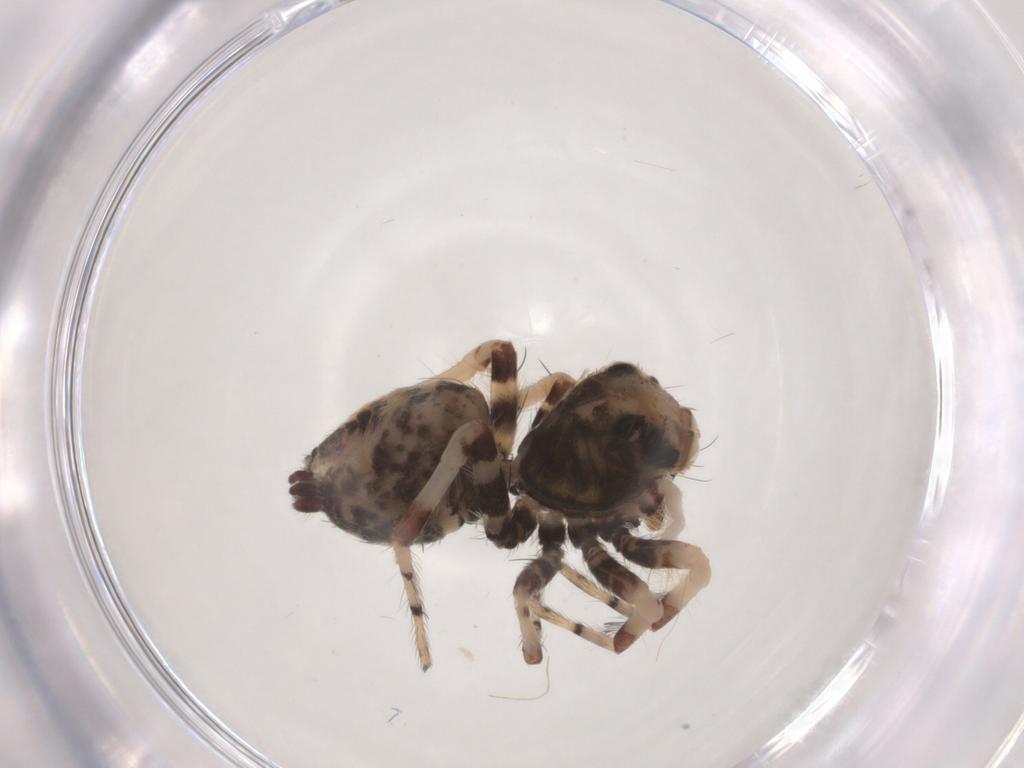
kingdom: Animalia
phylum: Arthropoda
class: Arachnida
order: Araneae
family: Salticidae
